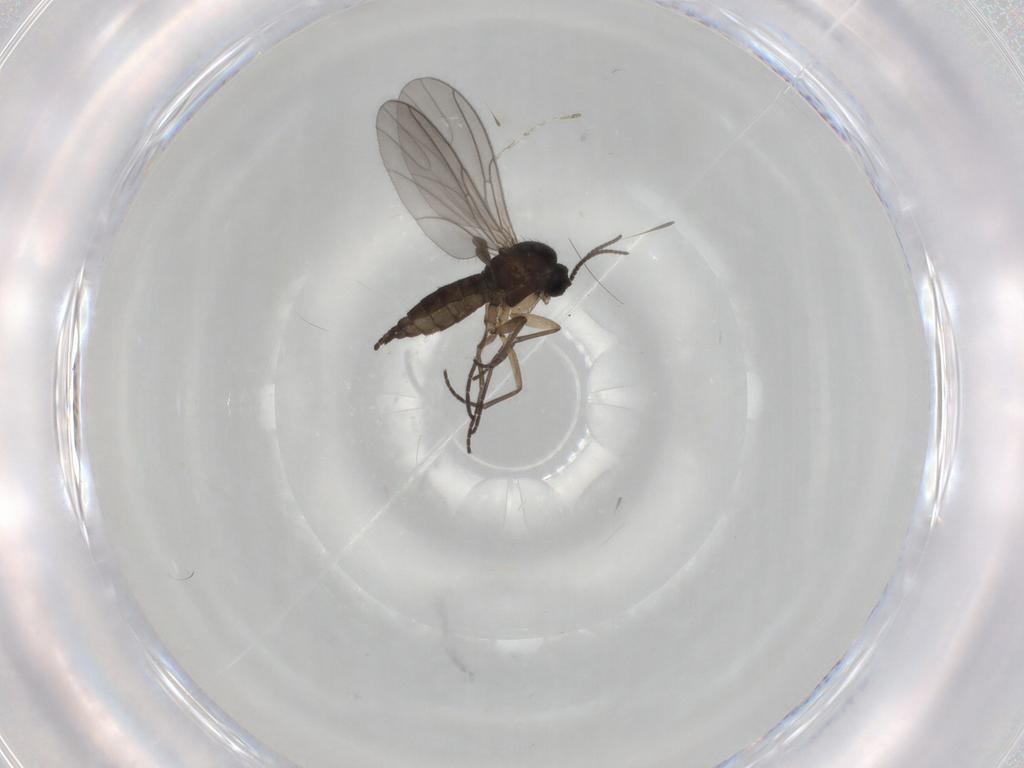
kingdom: Animalia
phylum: Arthropoda
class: Insecta
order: Diptera
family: Sciaridae
